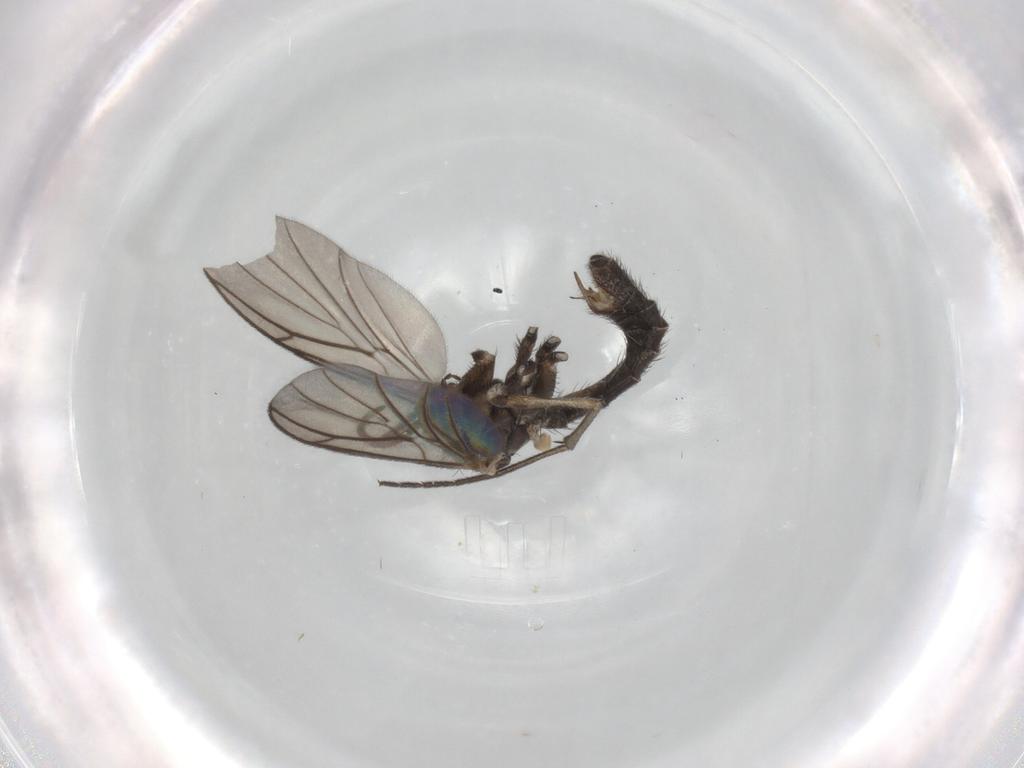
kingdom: Animalia
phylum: Arthropoda
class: Insecta
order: Diptera
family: Keroplatidae
